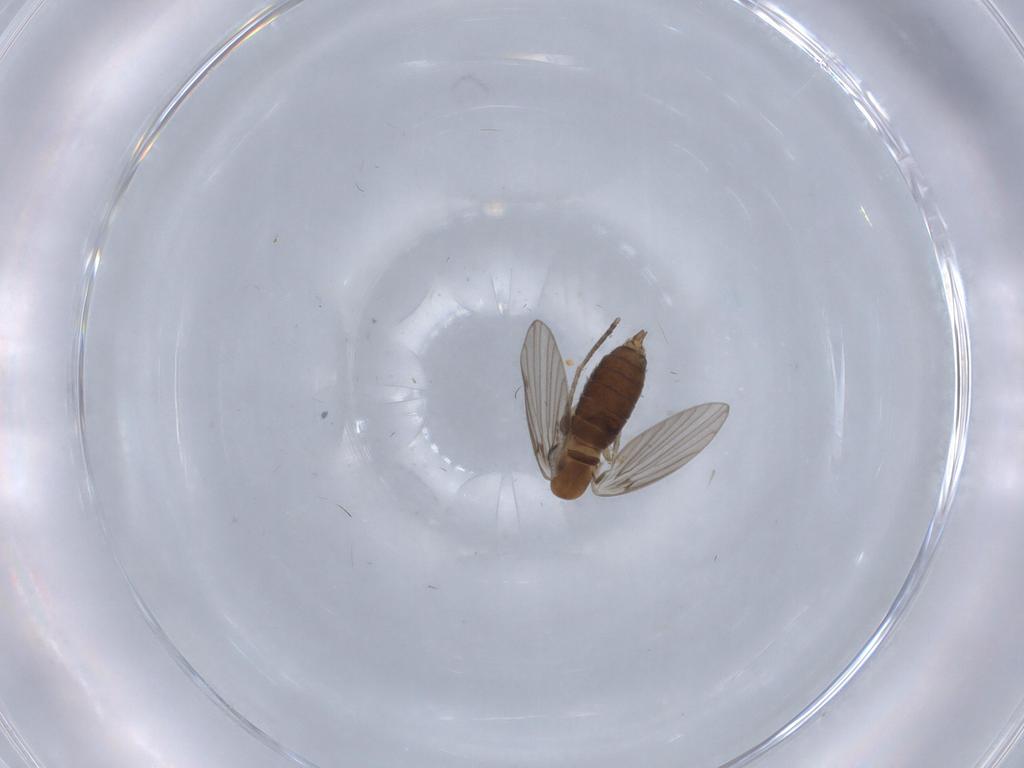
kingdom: Animalia
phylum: Arthropoda
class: Insecta
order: Diptera
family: Psychodidae
